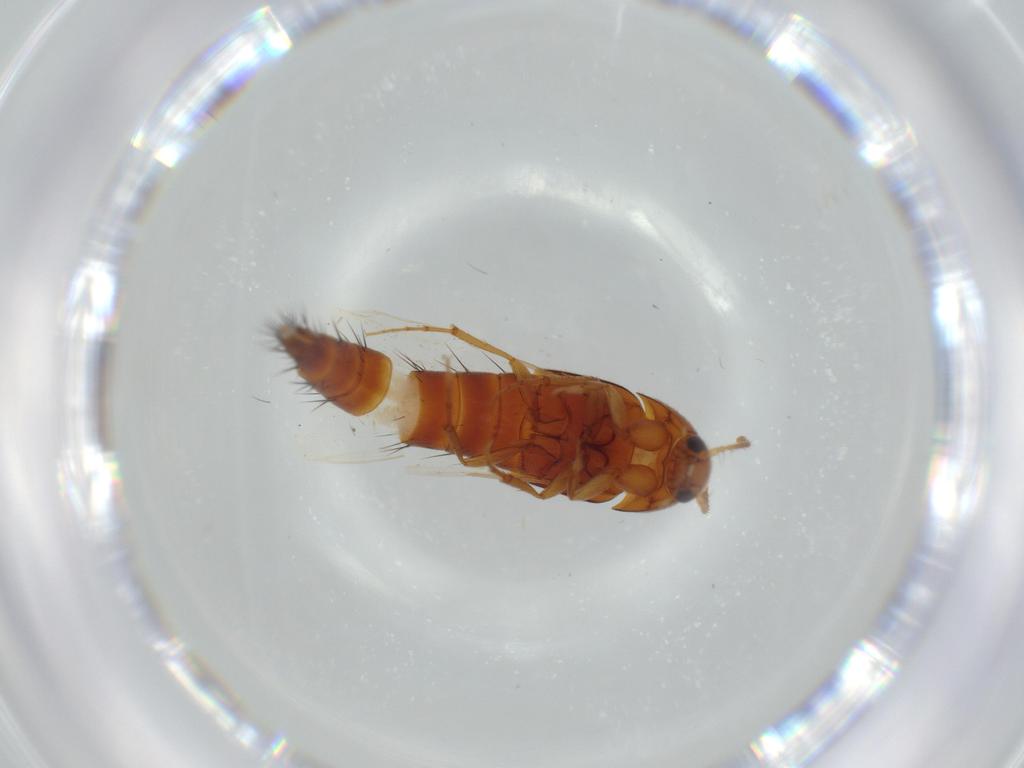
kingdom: Animalia
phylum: Arthropoda
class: Insecta
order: Coleoptera
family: Staphylinidae
